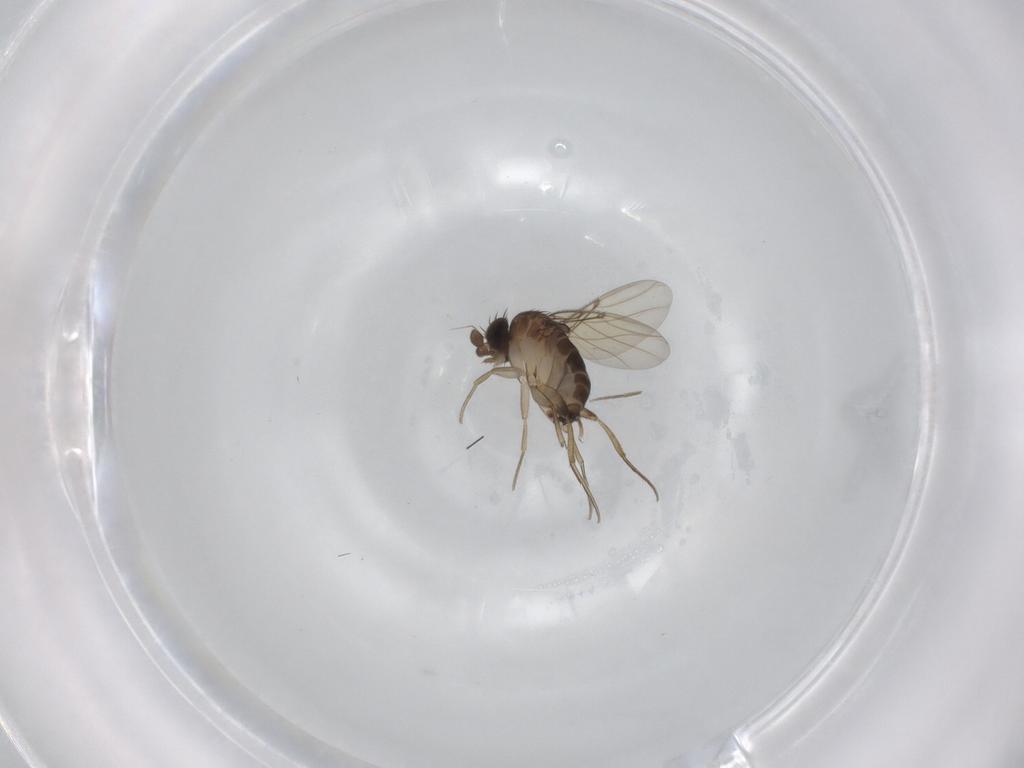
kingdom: Animalia
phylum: Arthropoda
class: Insecta
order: Diptera
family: Phoridae
